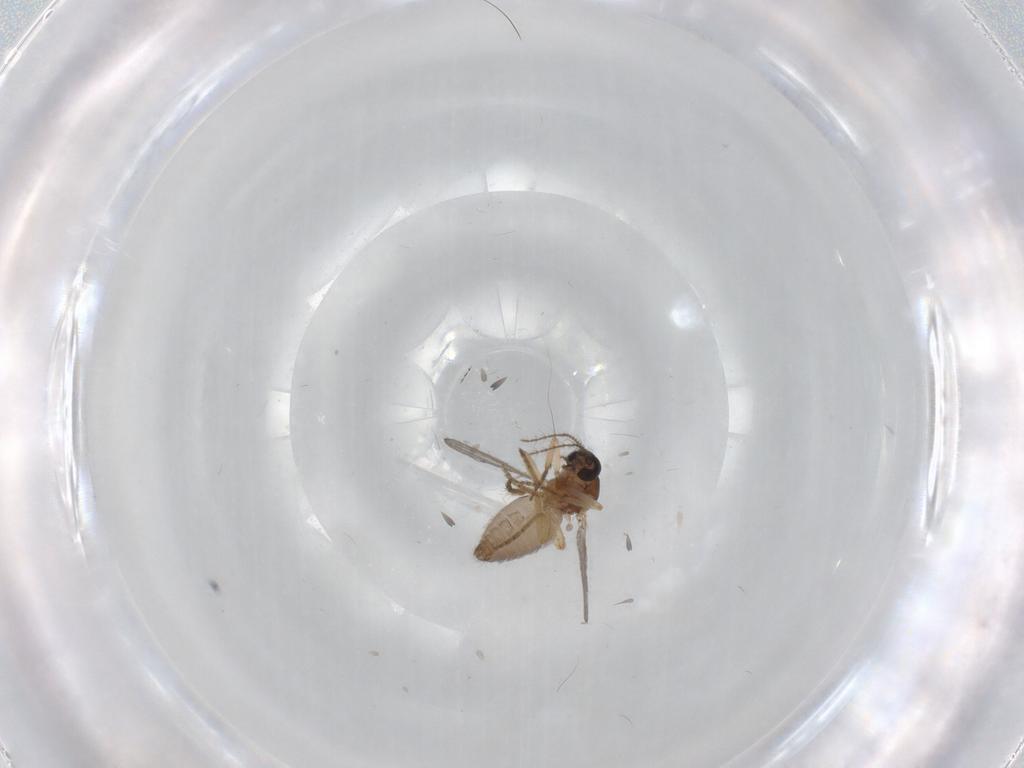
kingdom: Animalia
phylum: Arthropoda
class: Insecta
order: Diptera
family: Ceratopogonidae
